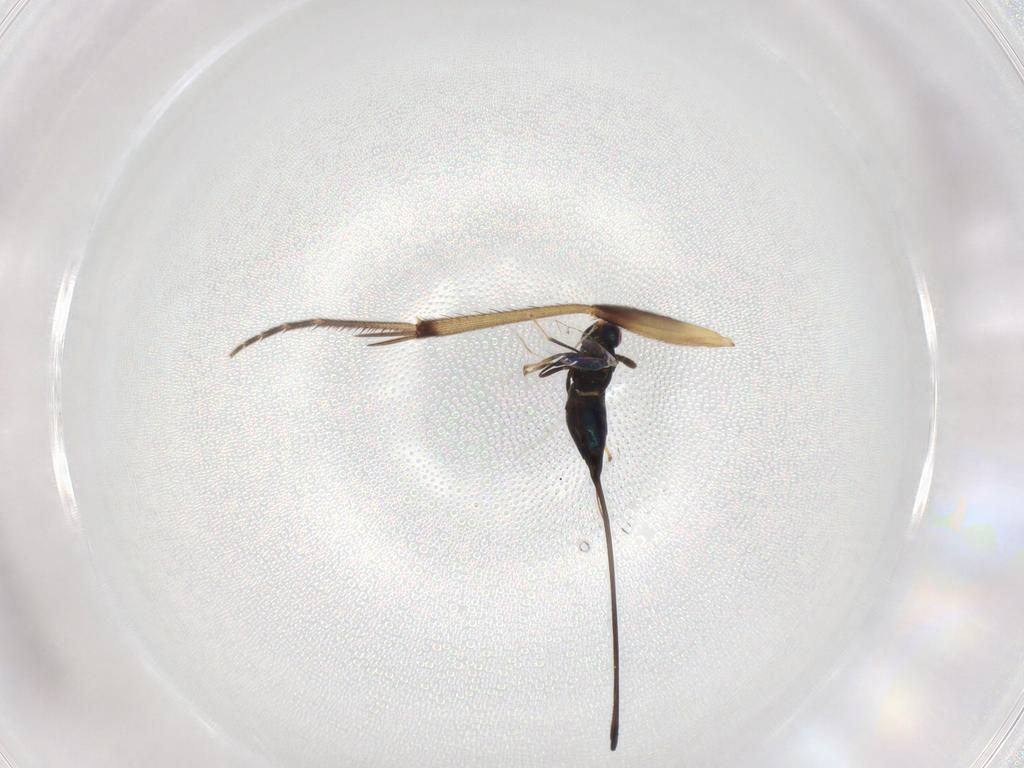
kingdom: Animalia
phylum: Arthropoda
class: Insecta
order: Hymenoptera
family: Pteromalidae
